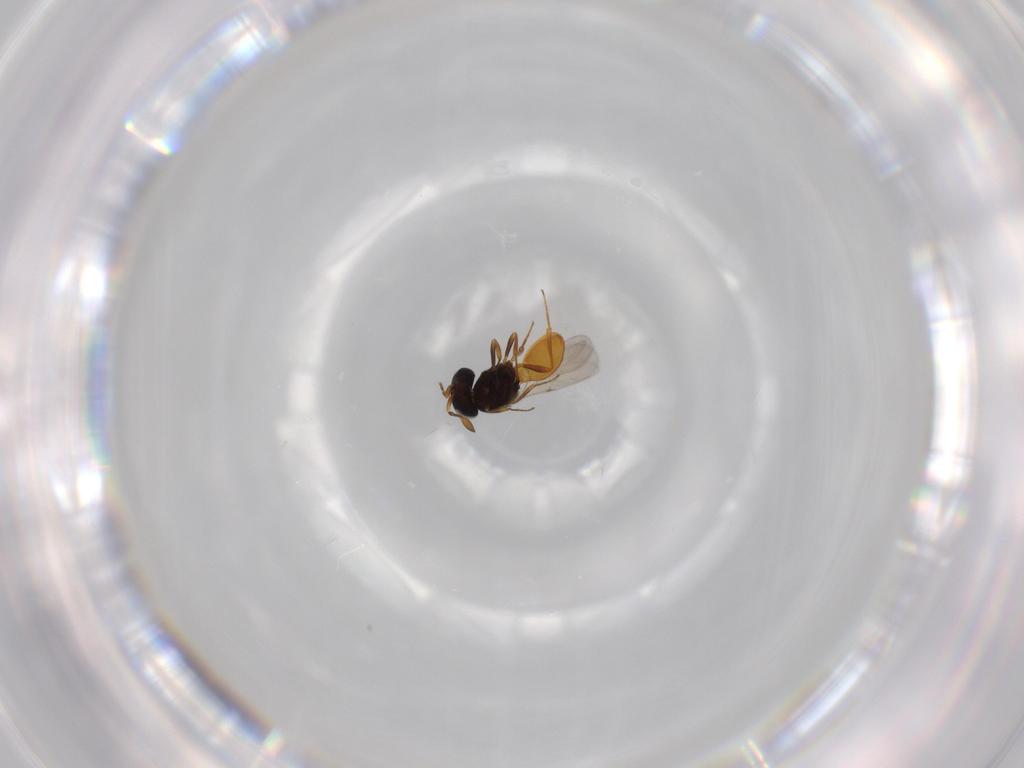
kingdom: Animalia
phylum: Arthropoda
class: Insecta
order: Hymenoptera
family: Scelionidae
